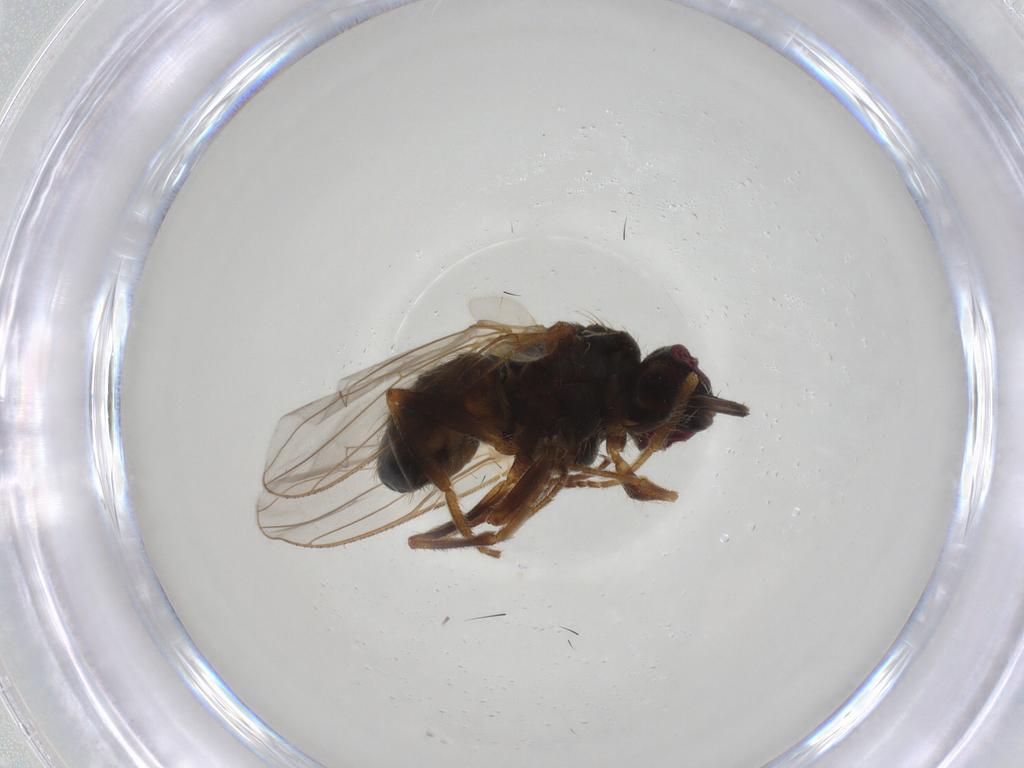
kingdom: Animalia
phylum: Arthropoda
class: Insecta
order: Diptera
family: Muscidae
